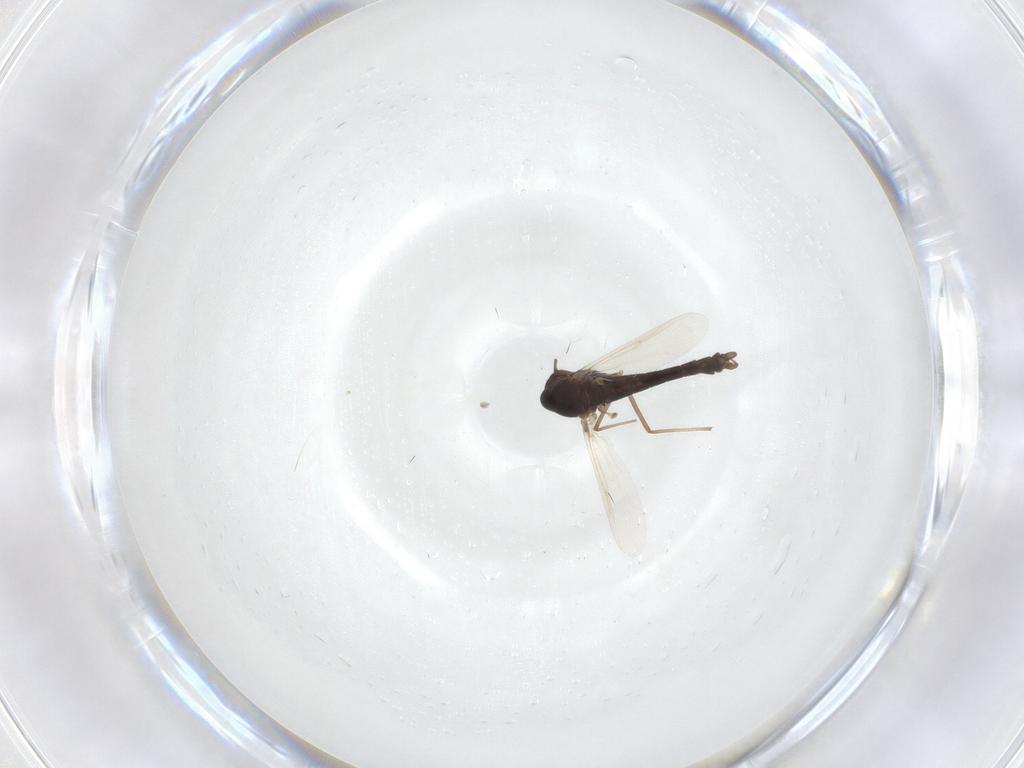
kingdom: Animalia
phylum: Arthropoda
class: Insecta
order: Diptera
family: Chironomidae
